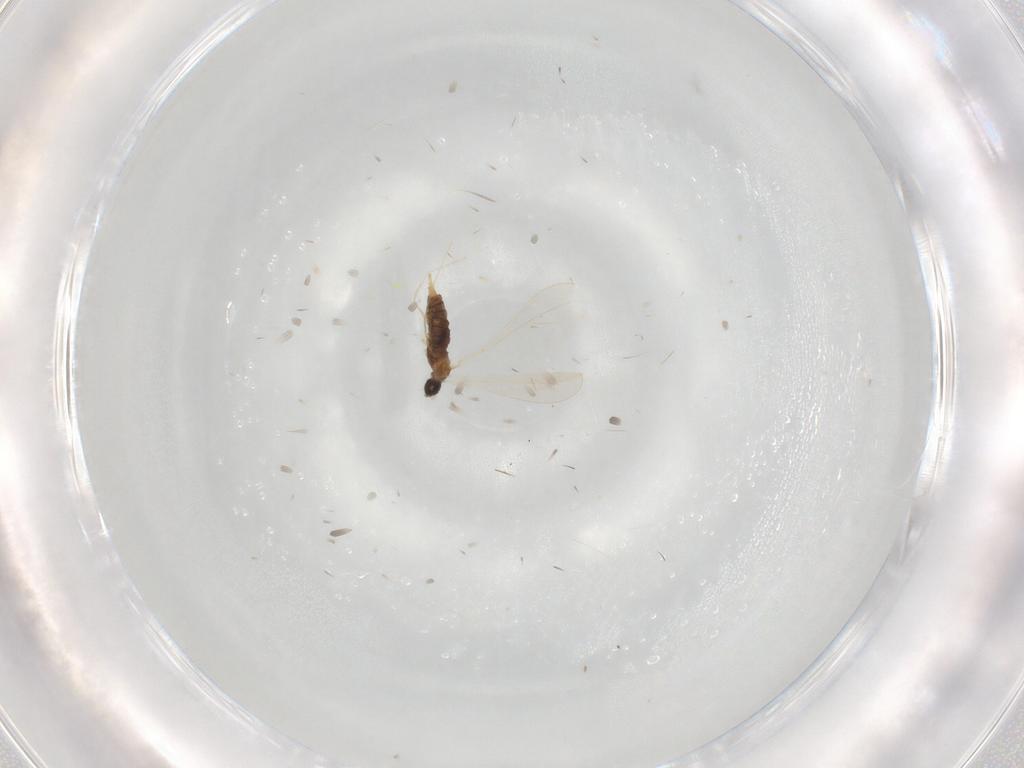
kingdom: Animalia
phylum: Arthropoda
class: Insecta
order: Diptera
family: Cecidomyiidae
